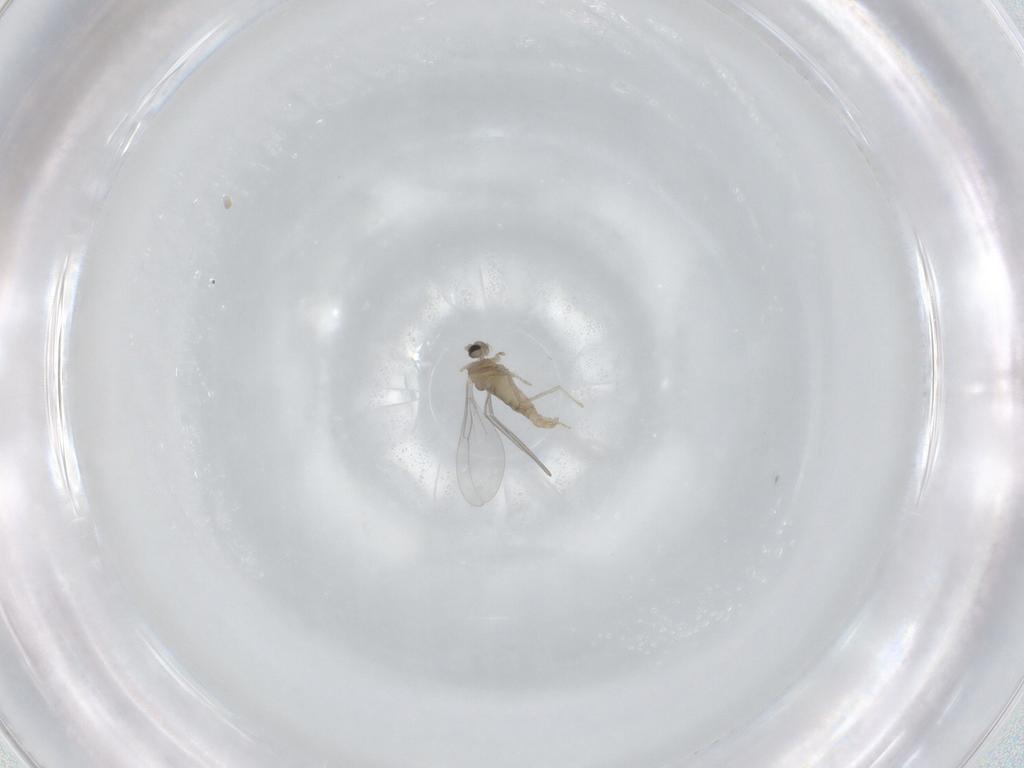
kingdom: Animalia
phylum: Arthropoda
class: Insecta
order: Diptera
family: Cecidomyiidae
